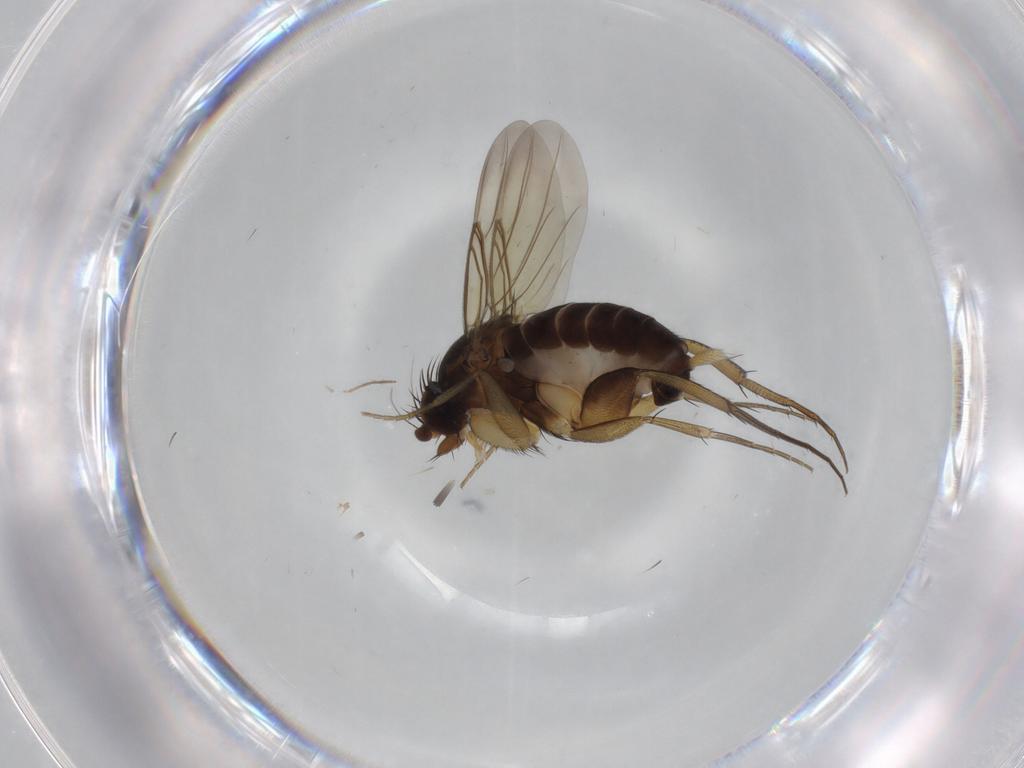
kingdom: Animalia
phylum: Arthropoda
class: Insecta
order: Diptera
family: Phoridae
